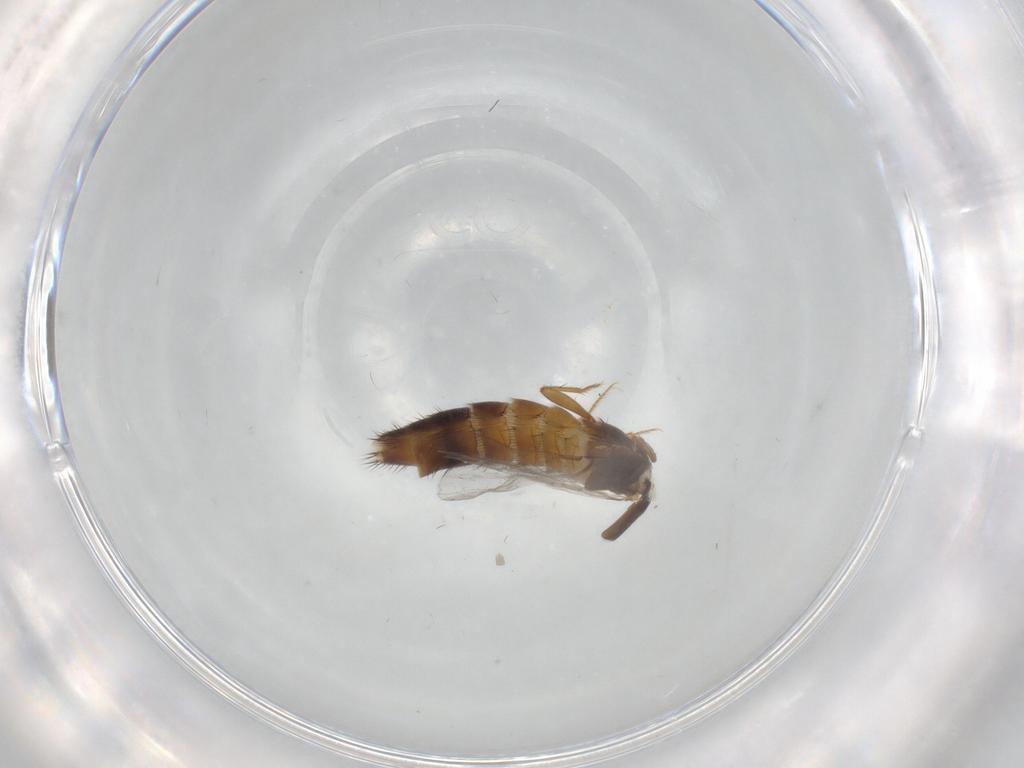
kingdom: Animalia
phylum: Arthropoda
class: Insecta
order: Coleoptera
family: Staphylinidae
